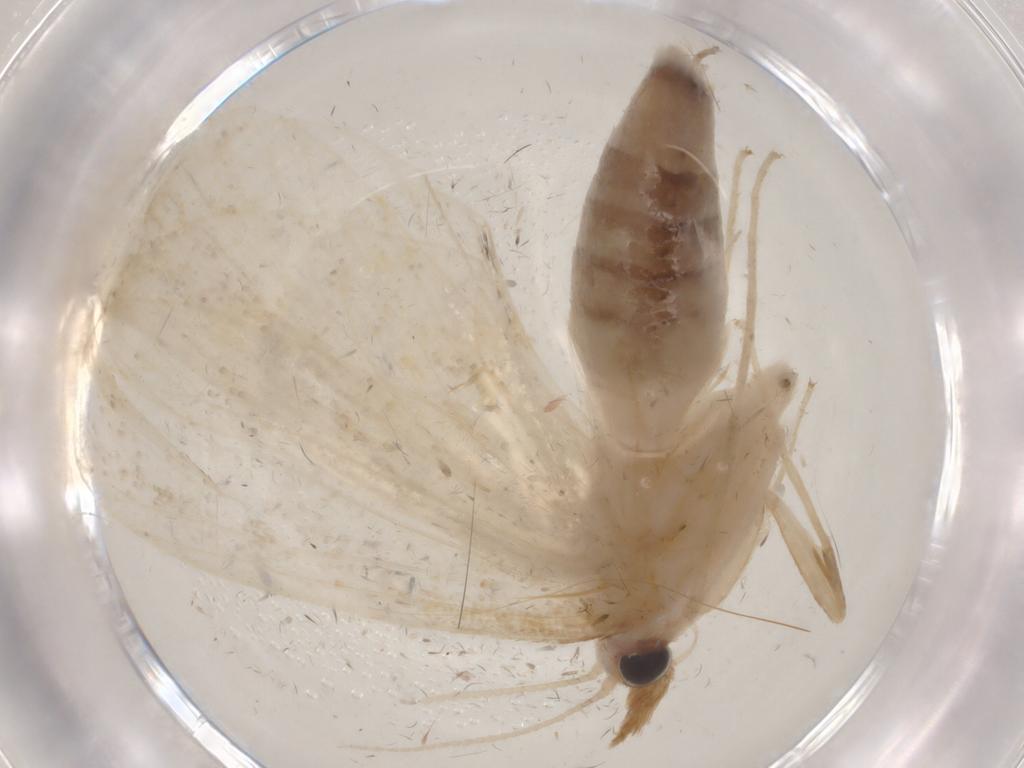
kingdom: Animalia
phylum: Arthropoda
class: Insecta
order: Lepidoptera
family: Crambidae
